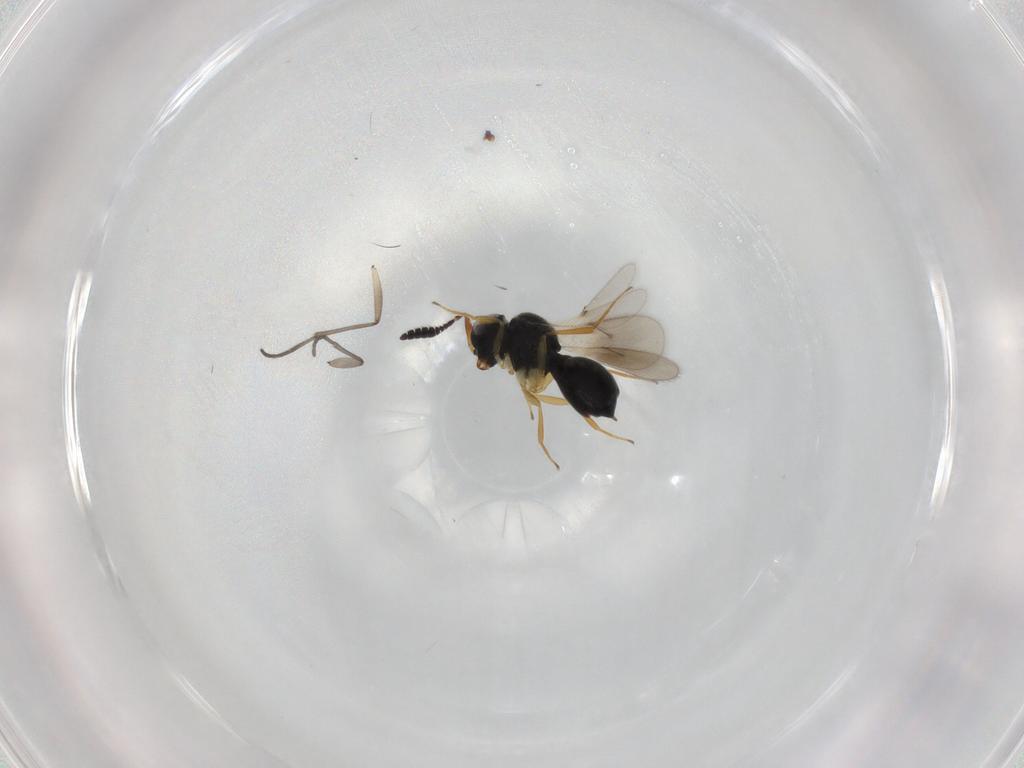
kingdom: Animalia
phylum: Arthropoda
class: Insecta
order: Hymenoptera
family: Scelionidae
